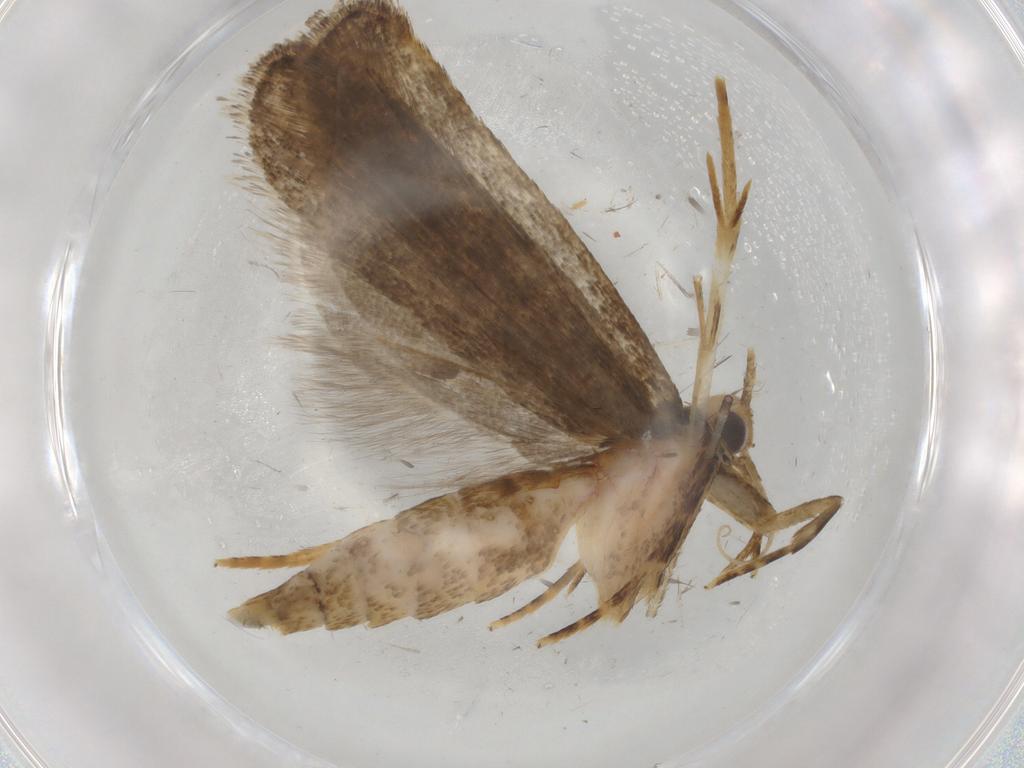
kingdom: Animalia
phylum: Arthropoda
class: Insecta
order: Lepidoptera
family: Autostichidae
